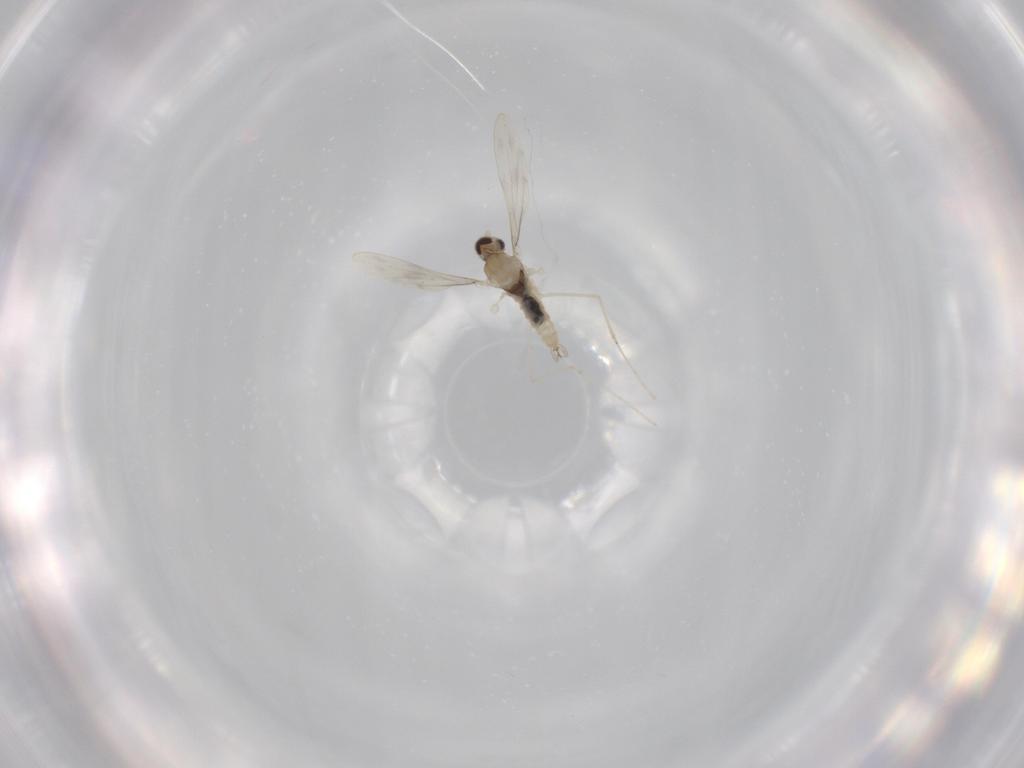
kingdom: Animalia
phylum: Arthropoda
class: Insecta
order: Diptera
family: Cecidomyiidae
